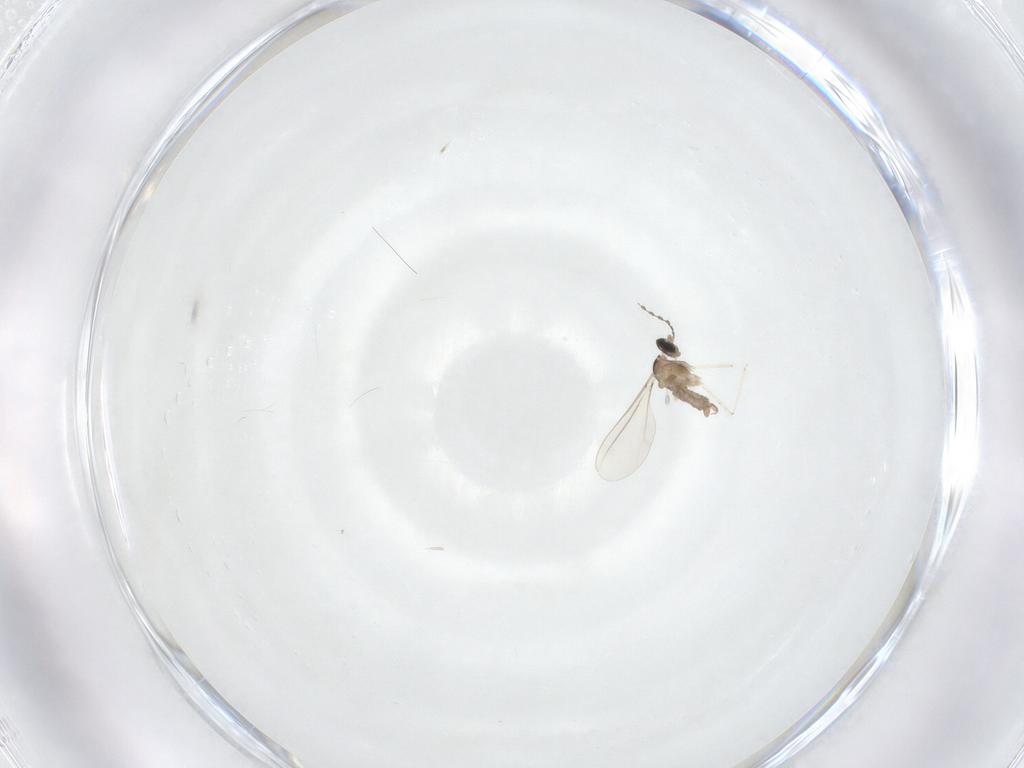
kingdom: Animalia
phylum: Arthropoda
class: Insecta
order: Diptera
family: Cecidomyiidae
